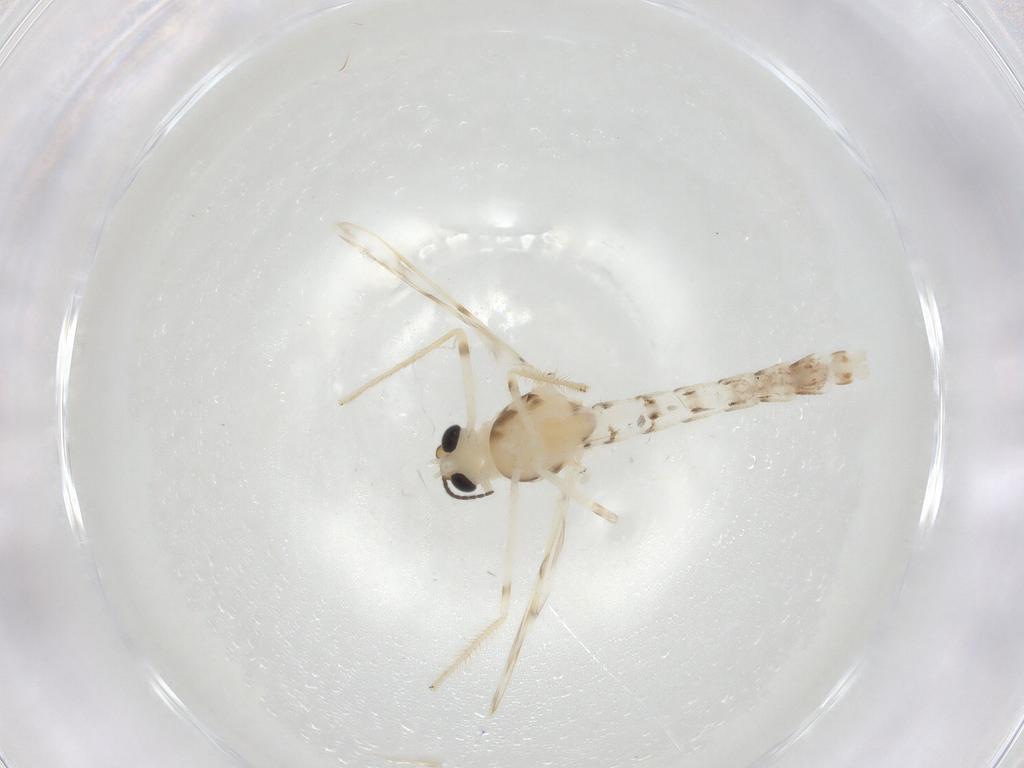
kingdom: Animalia
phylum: Arthropoda
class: Insecta
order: Diptera
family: Chironomidae
